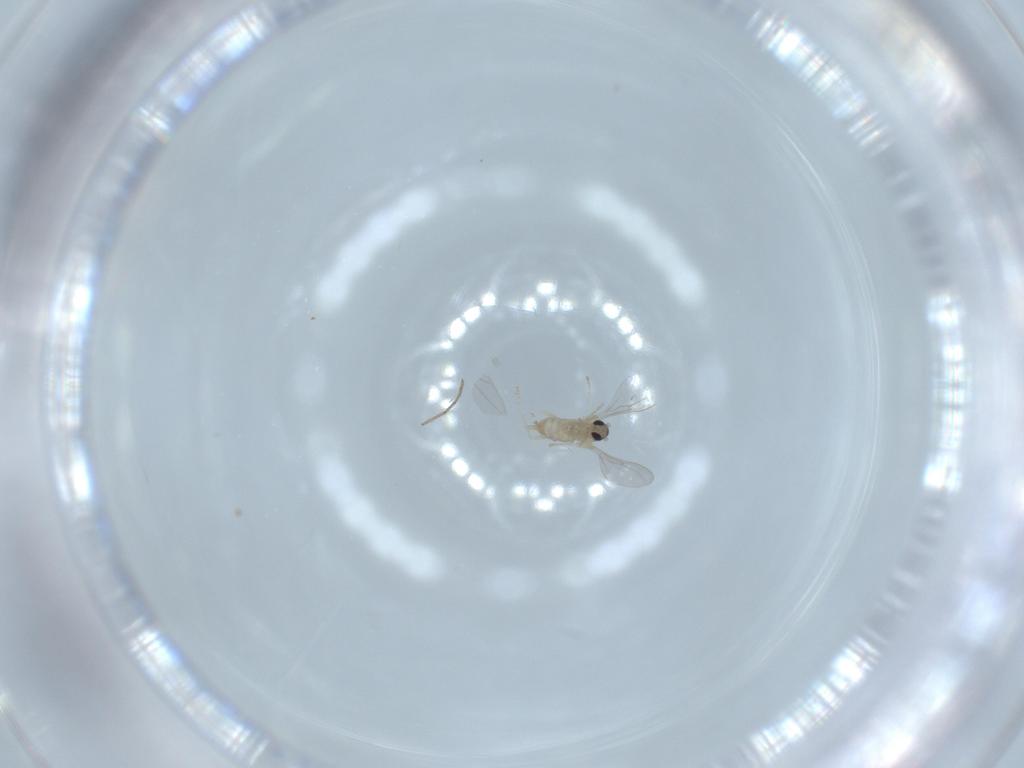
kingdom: Animalia
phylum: Arthropoda
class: Insecta
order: Diptera
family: Cecidomyiidae
